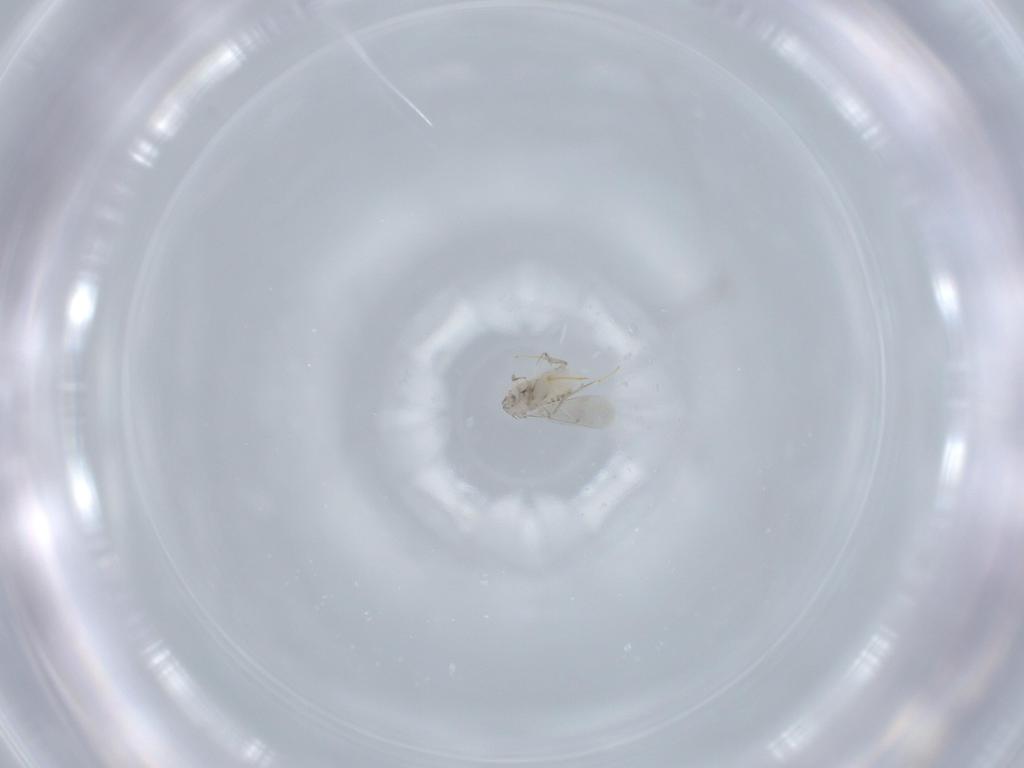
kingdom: Animalia
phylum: Arthropoda
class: Insecta
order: Hymenoptera
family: Aphelinidae
